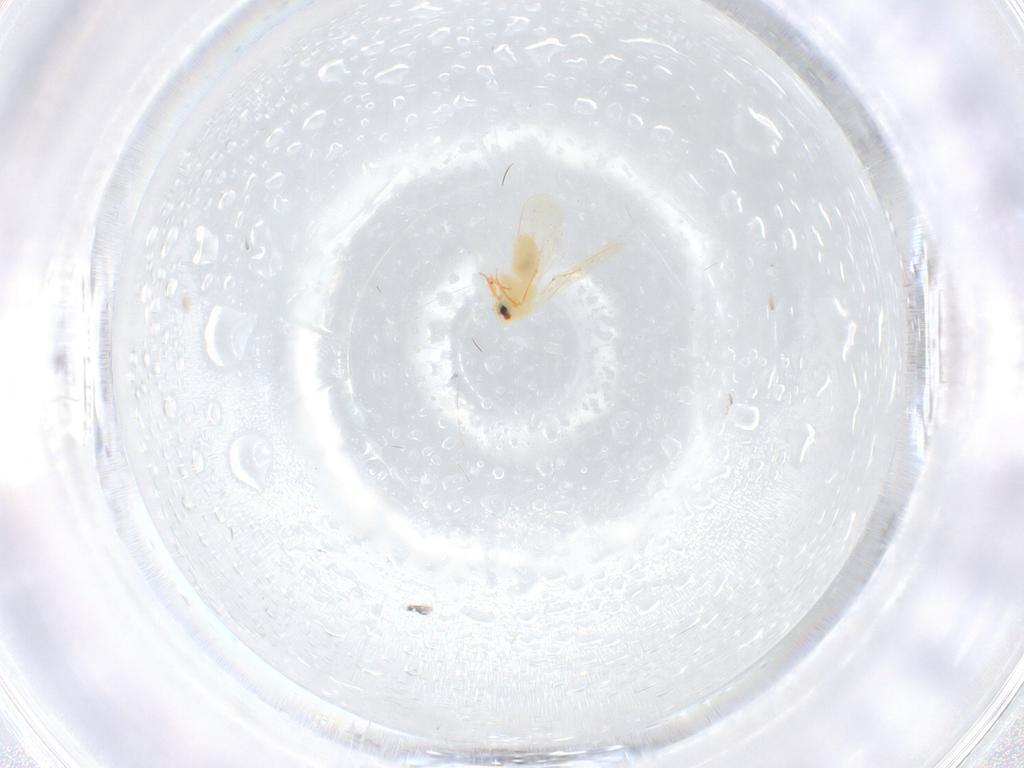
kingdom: Animalia
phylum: Arthropoda
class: Insecta
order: Hemiptera
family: Aleyrodidae
